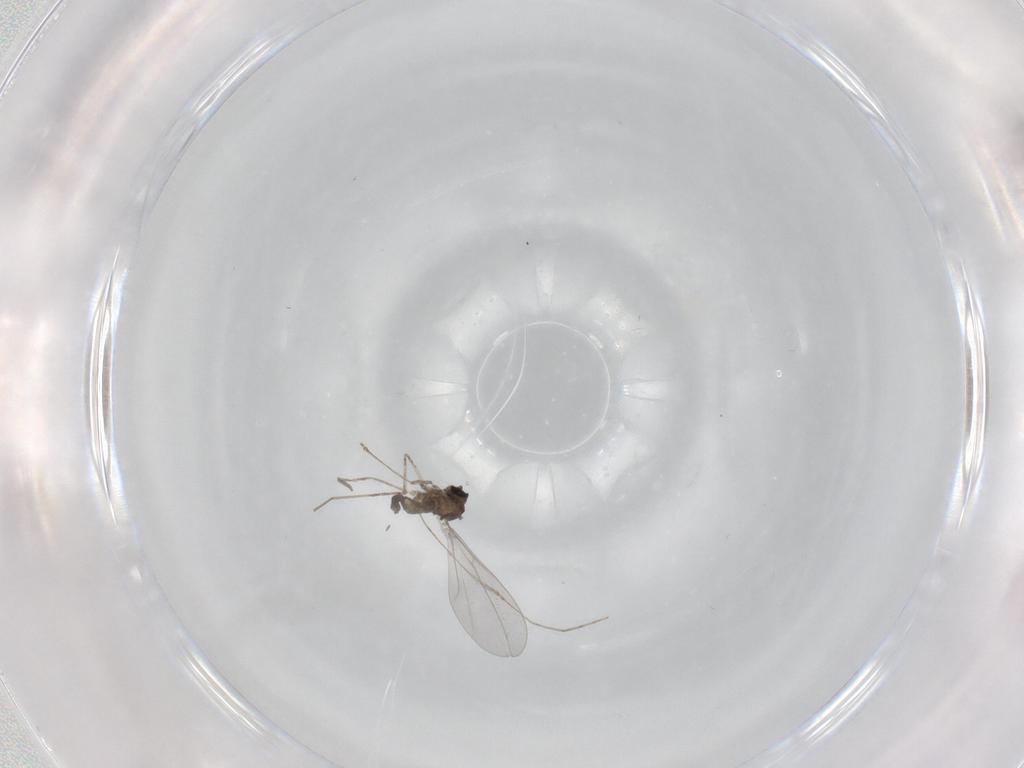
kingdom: Animalia
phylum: Arthropoda
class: Insecta
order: Diptera
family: Cecidomyiidae
